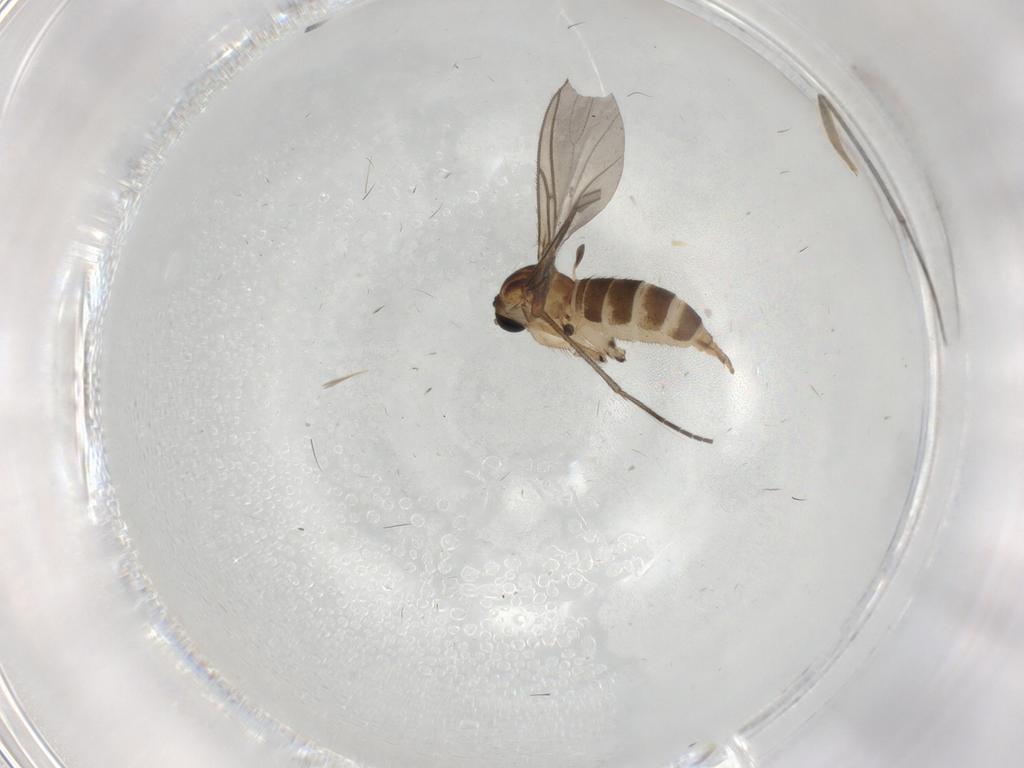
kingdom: Animalia
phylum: Arthropoda
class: Insecta
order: Diptera
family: Sciaridae
